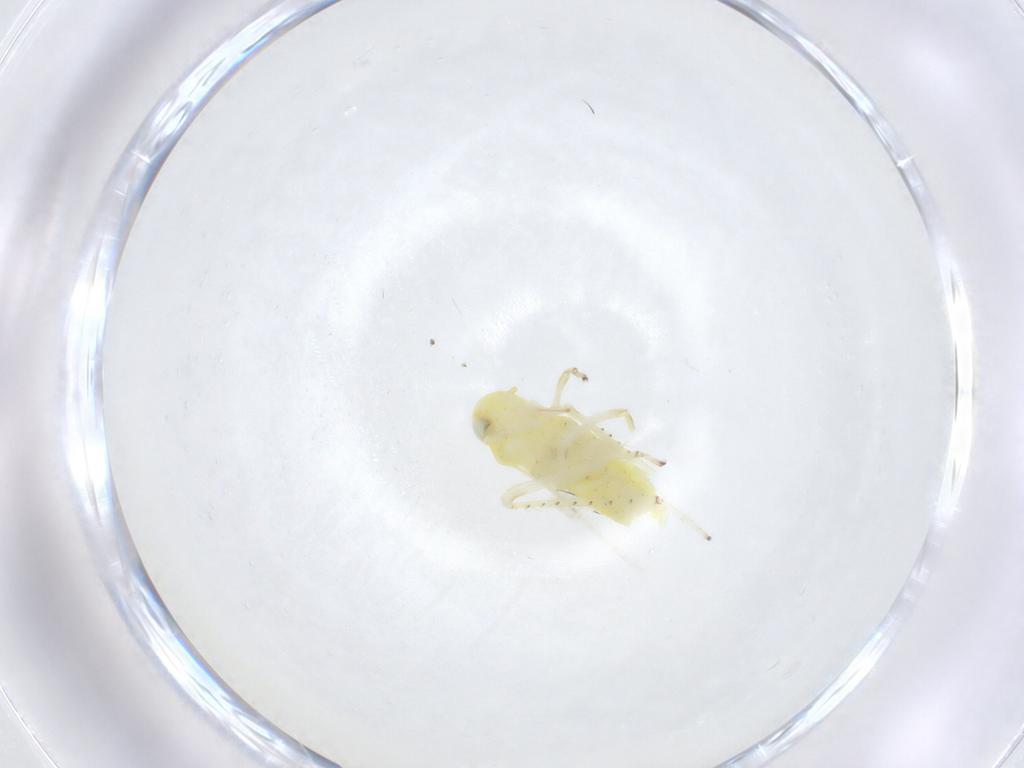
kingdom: Animalia
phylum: Arthropoda
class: Insecta
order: Hemiptera
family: Cicadellidae
